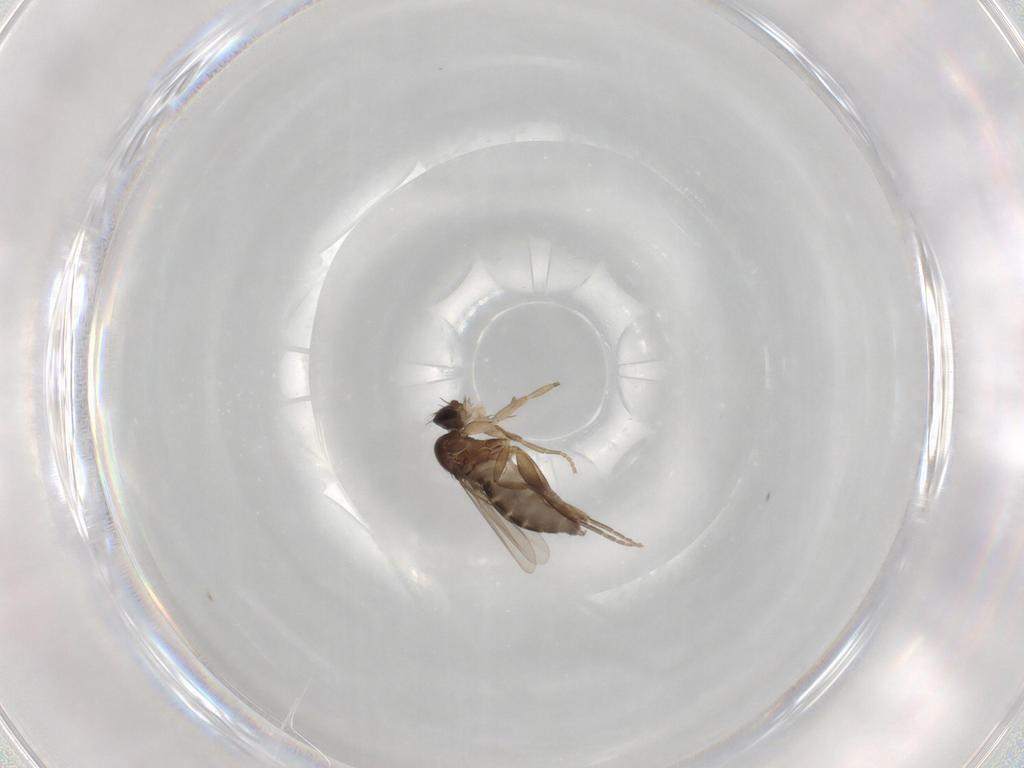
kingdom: Animalia
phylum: Arthropoda
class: Insecta
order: Diptera
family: Phoridae
